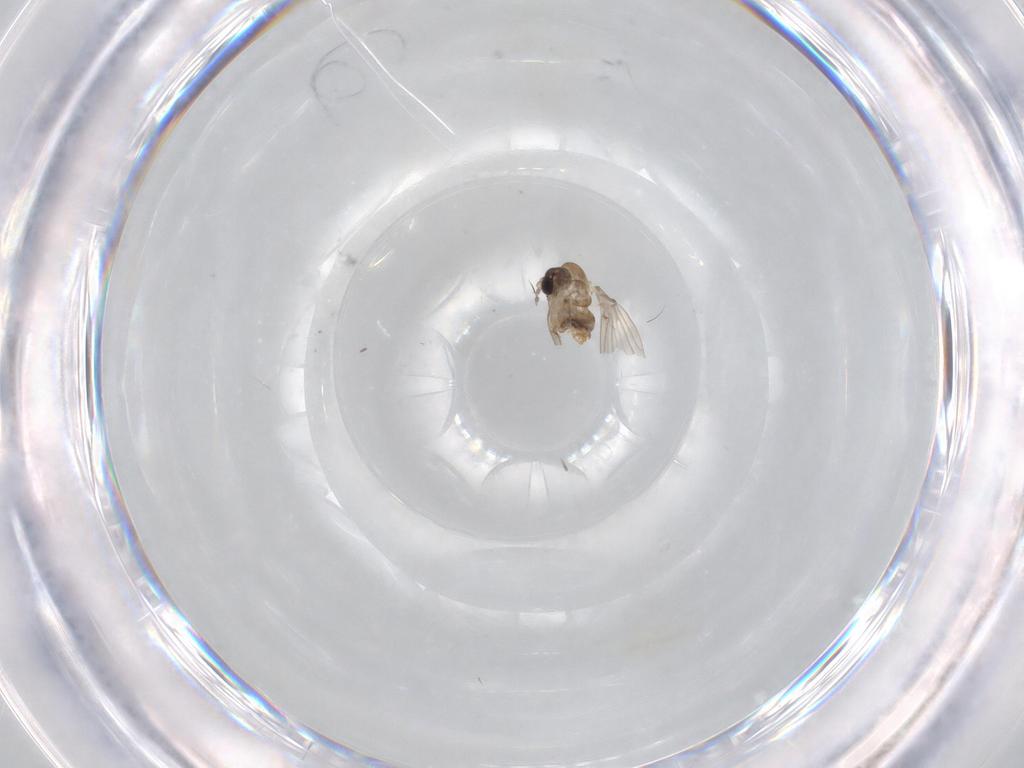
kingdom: Animalia
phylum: Arthropoda
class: Insecta
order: Diptera
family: Psychodidae
